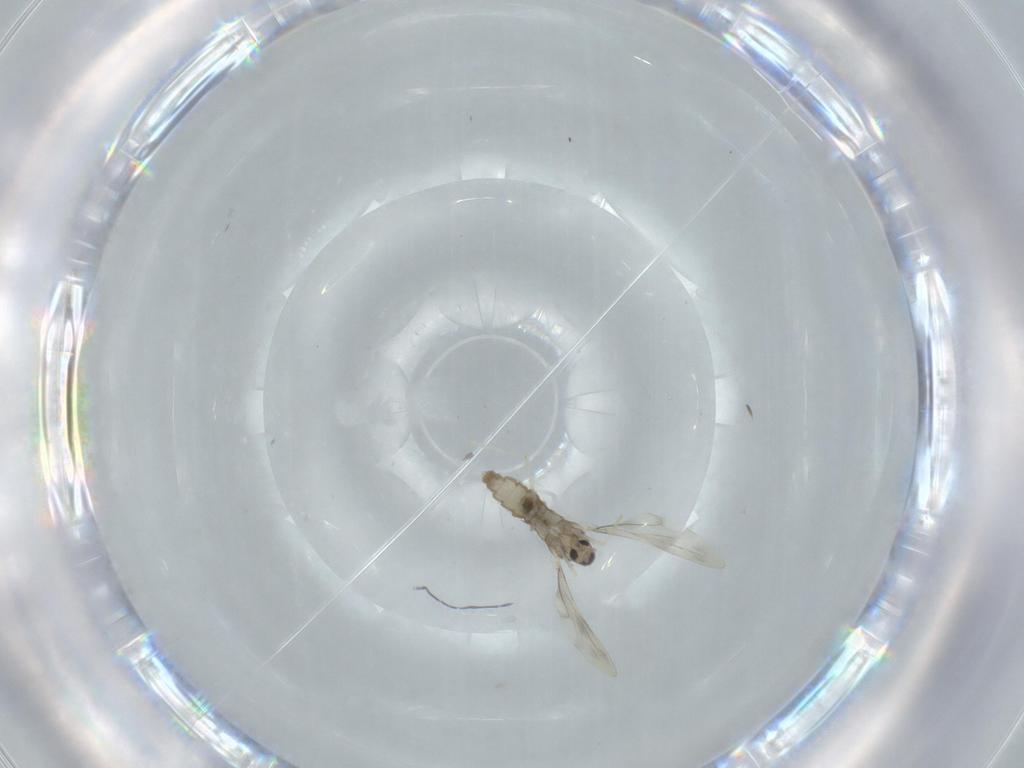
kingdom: Animalia
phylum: Arthropoda
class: Insecta
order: Diptera
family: Cecidomyiidae
